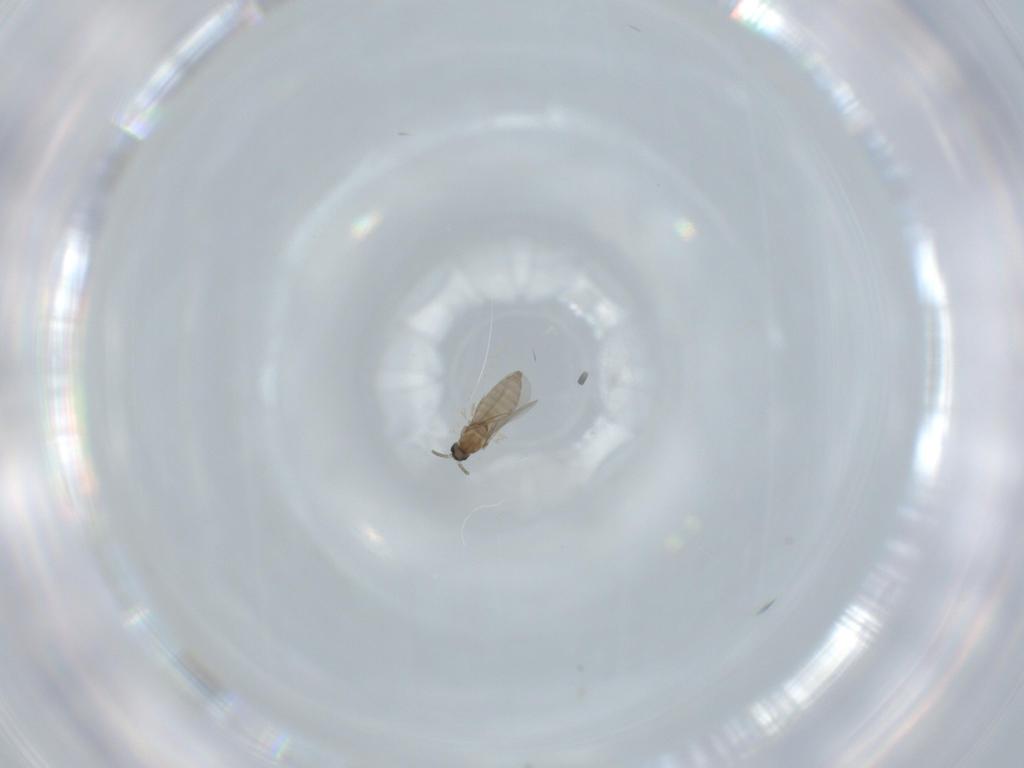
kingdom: Animalia
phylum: Arthropoda
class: Insecta
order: Diptera
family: Cecidomyiidae
